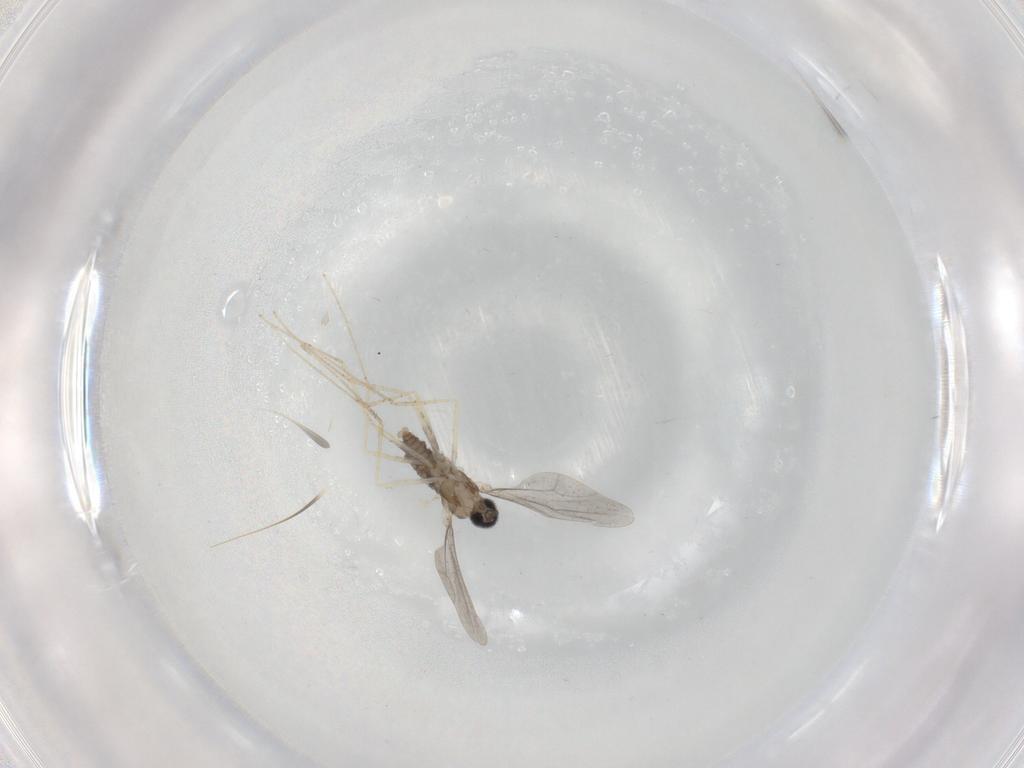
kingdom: Animalia
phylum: Arthropoda
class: Insecta
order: Diptera
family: Cecidomyiidae
